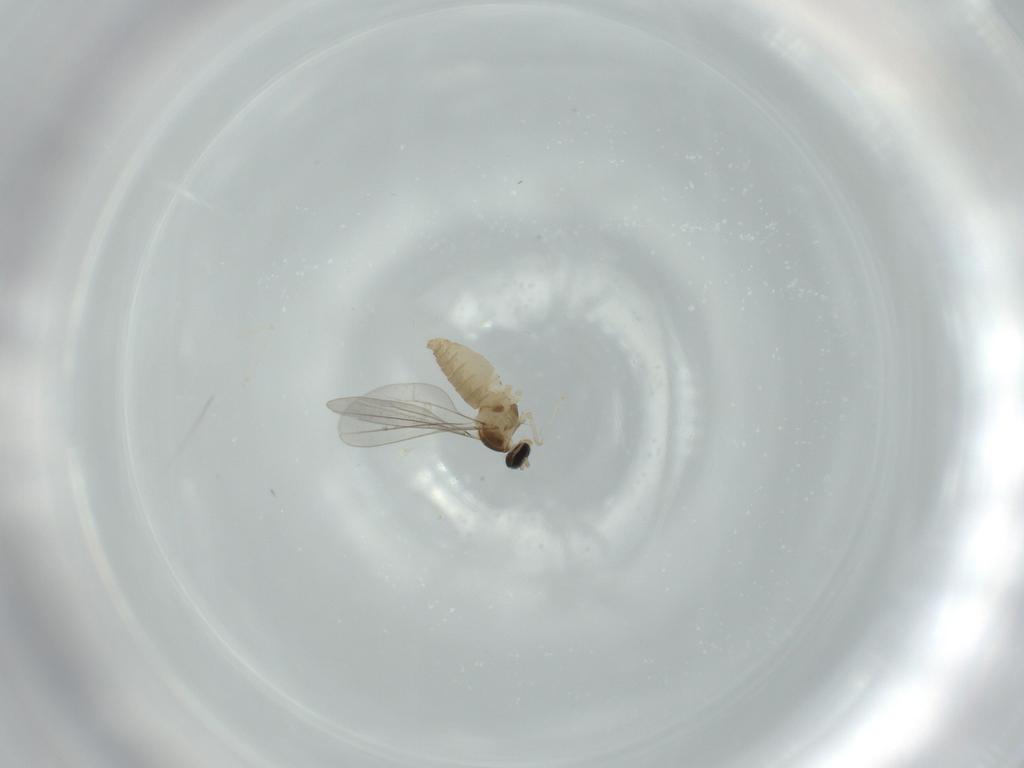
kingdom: Animalia
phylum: Arthropoda
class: Insecta
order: Diptera
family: Cecidomyiidae
